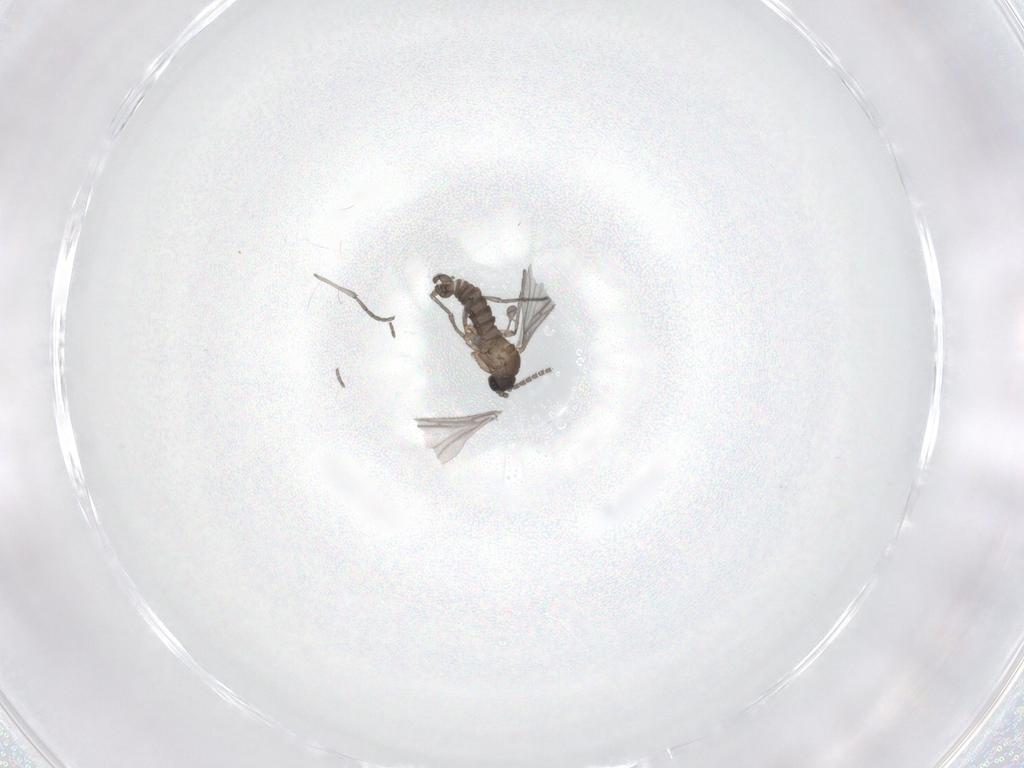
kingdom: Animalia
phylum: Arthropoda
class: Insecta
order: Diptera
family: Sciaridae
